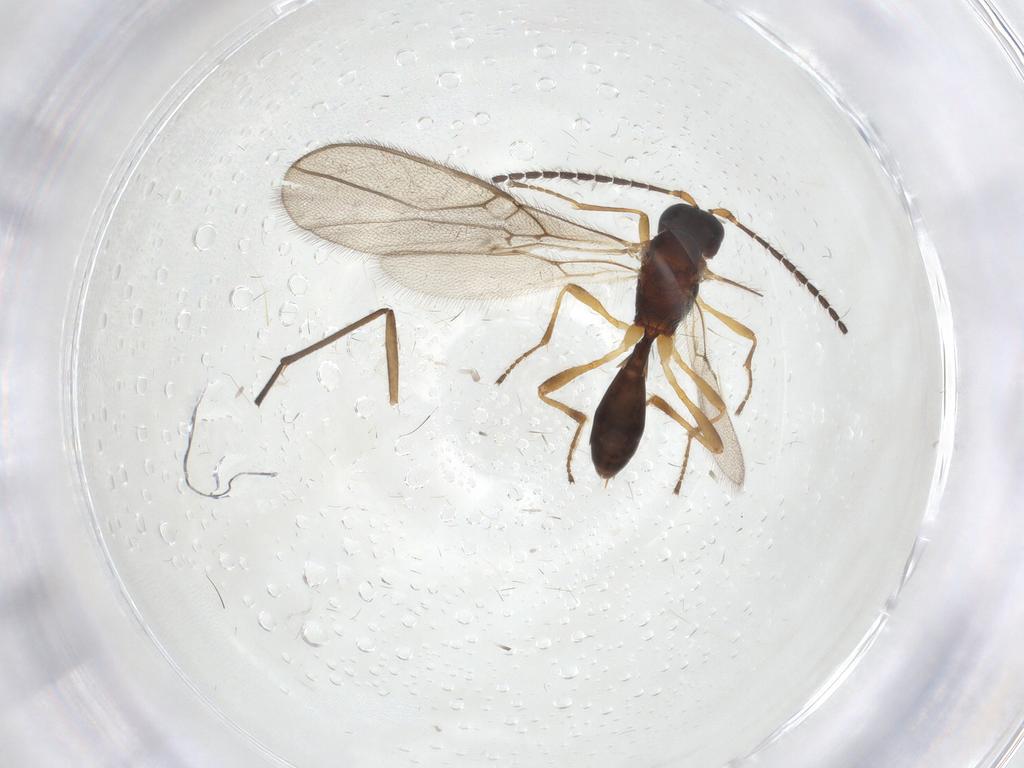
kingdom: Animalia
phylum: Arthropoda
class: Insecta
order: Hymenoptera
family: Braconidae
